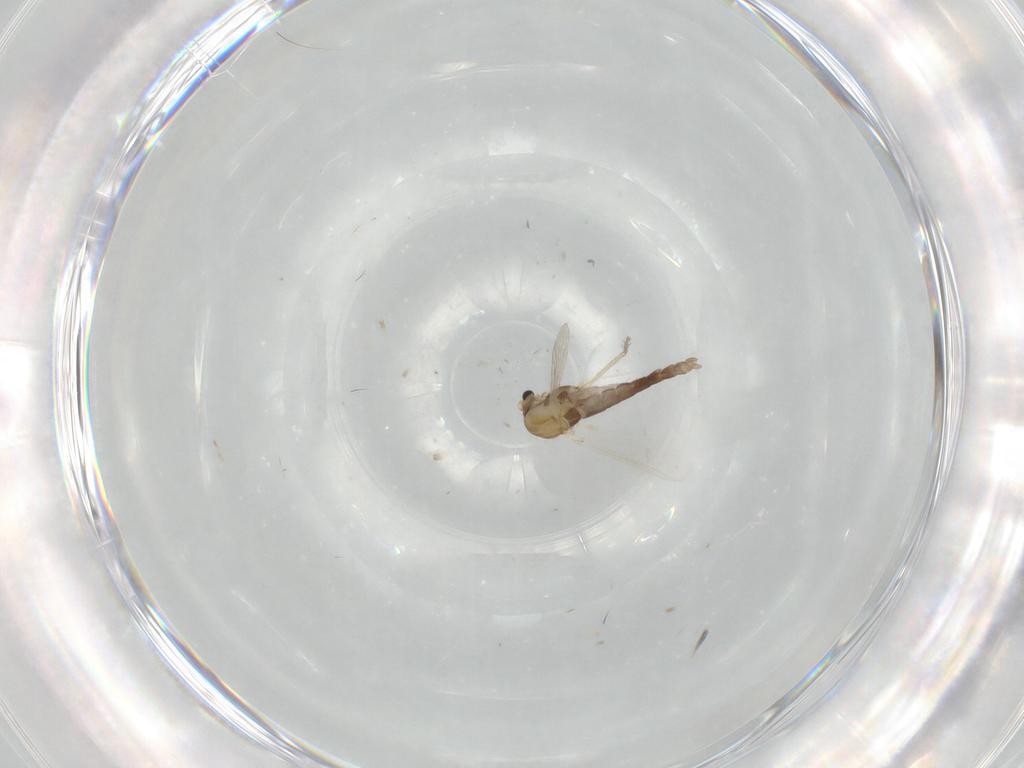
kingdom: Animalia
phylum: Arthropoda
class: Insecta
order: Diptera
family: Chironomidae
